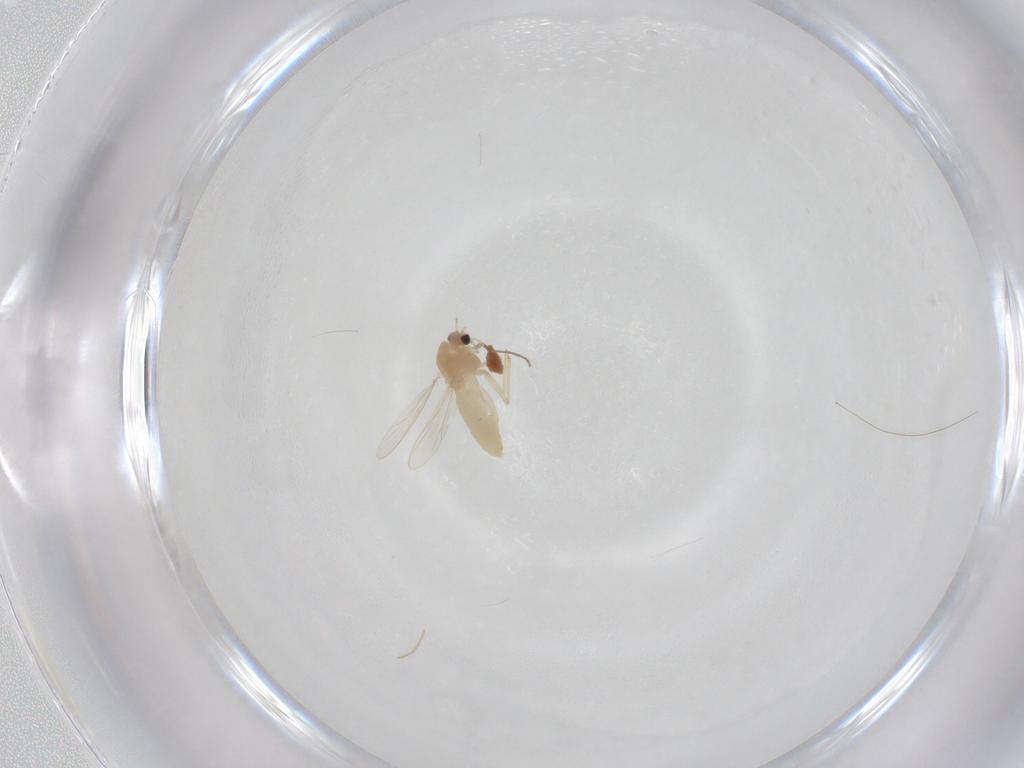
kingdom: Animalia
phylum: Arthropoda
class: Insecta
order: Diptera
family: Chironomidae
